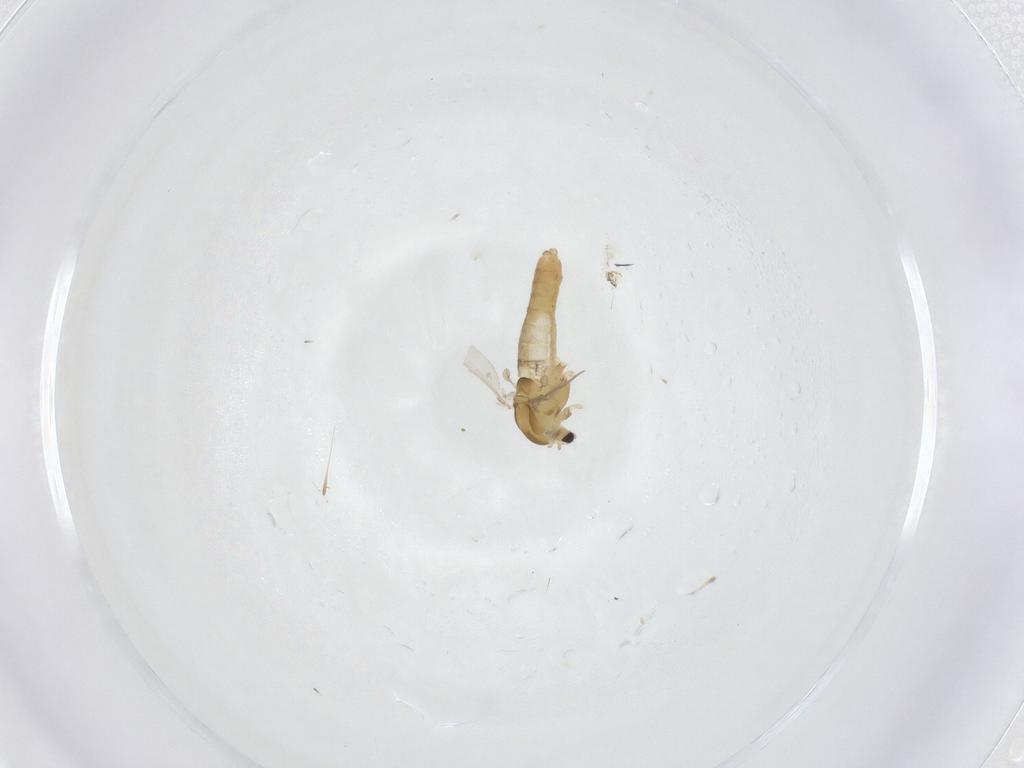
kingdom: Animalia
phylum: Arthropoda
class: Insecta
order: Diptera
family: Chironomidae
